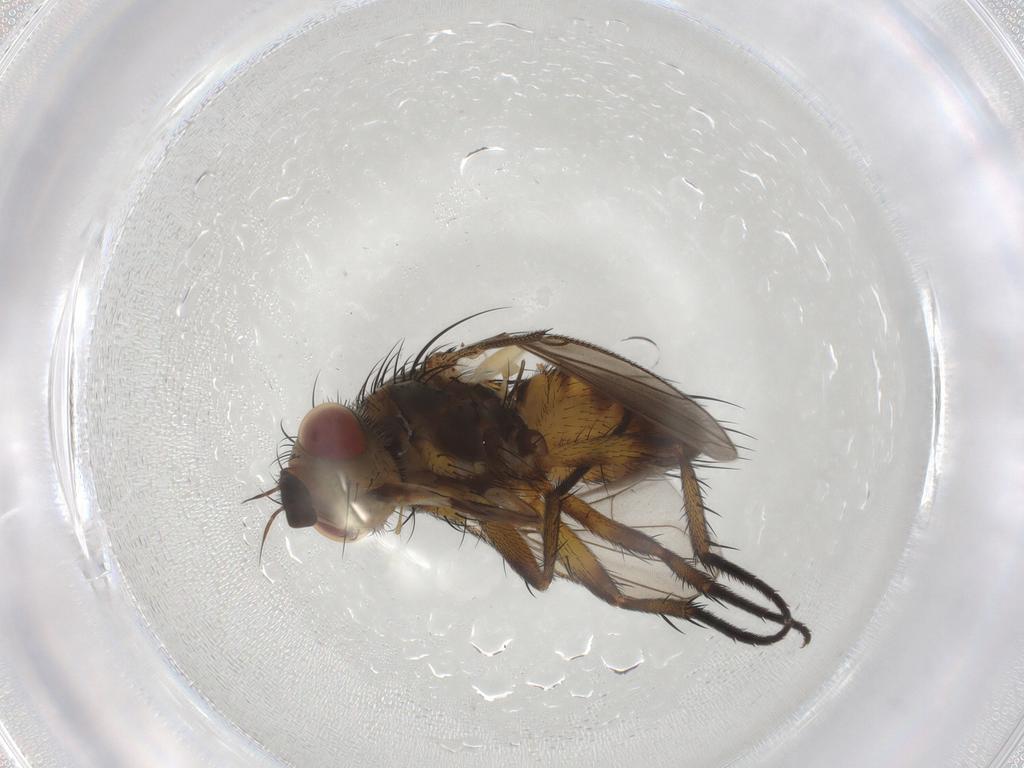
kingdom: Animalia
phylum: Arthropoda
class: Insecta
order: Diptera
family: Tachinidae
